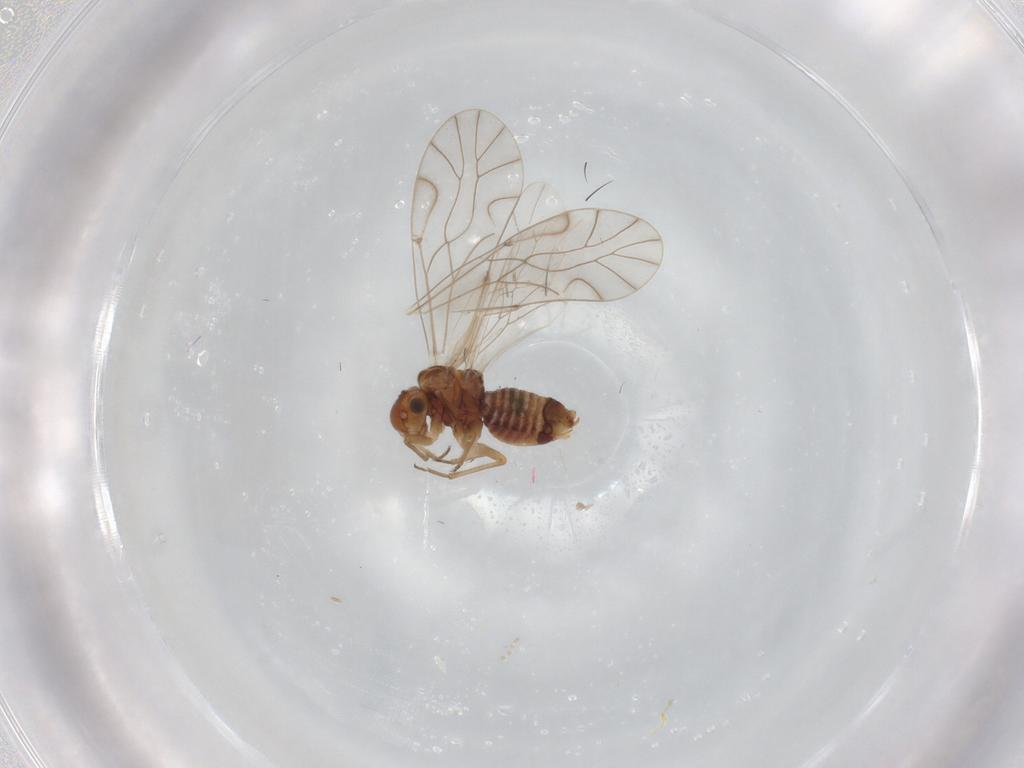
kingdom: Animalia
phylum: Arthropoda
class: Insecta
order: Psocodea
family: Lachesillidae
